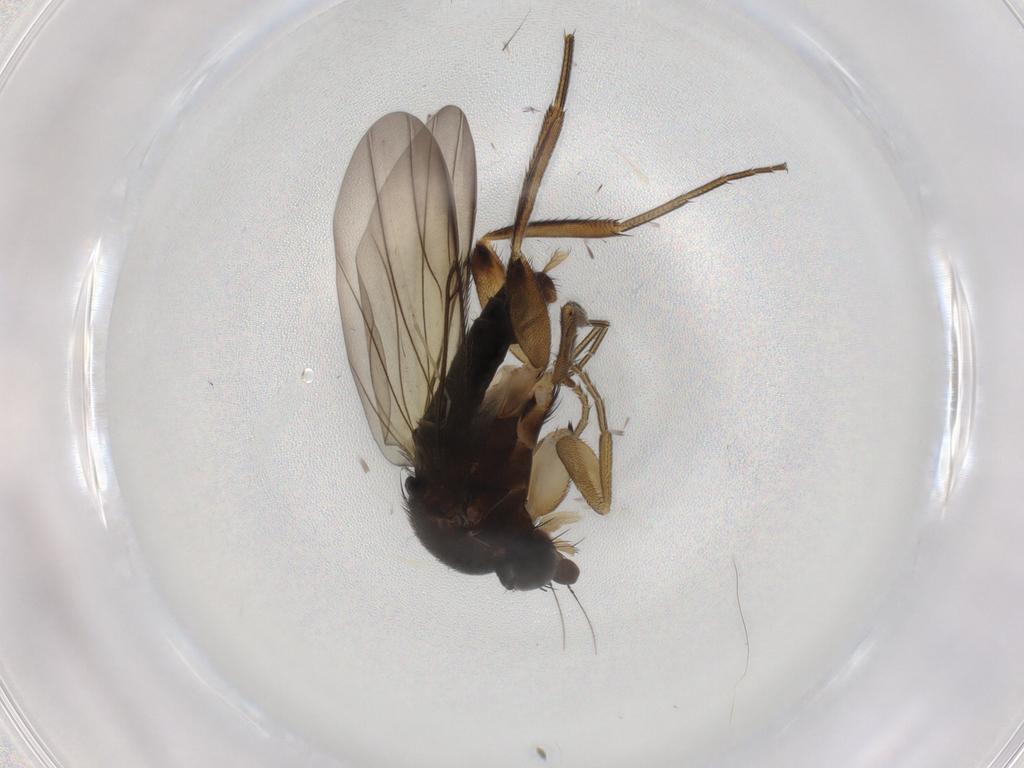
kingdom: Animalia
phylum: Arthropoda
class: Insecta
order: Diptera
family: Phoridae
